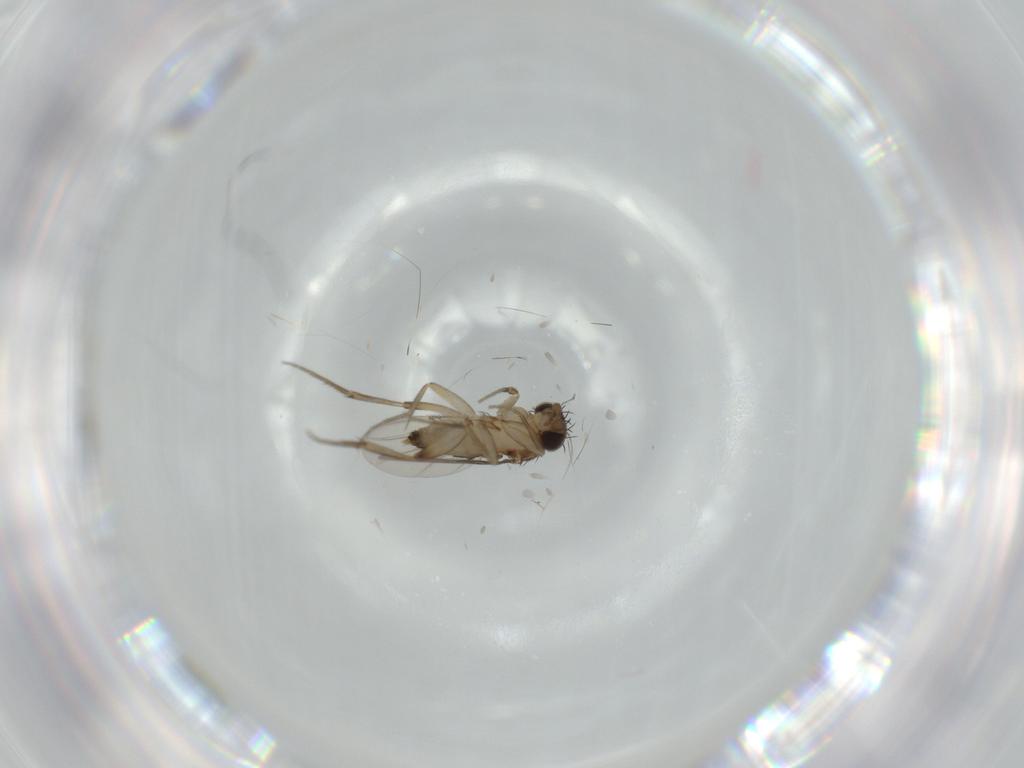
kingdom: Animalia
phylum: Arthropoda
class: Insecta
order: Diptera
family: Phoridae
